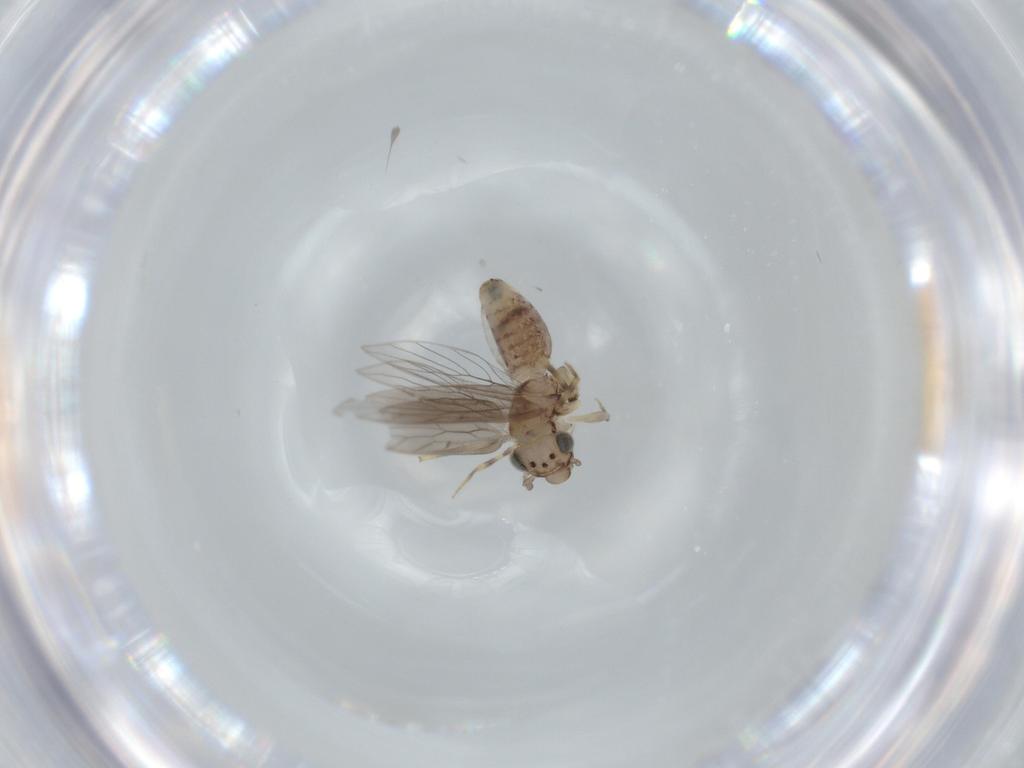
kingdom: Animalia
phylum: Arthropoda
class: Insecta
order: Psocodea
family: Lepidopsocidae
